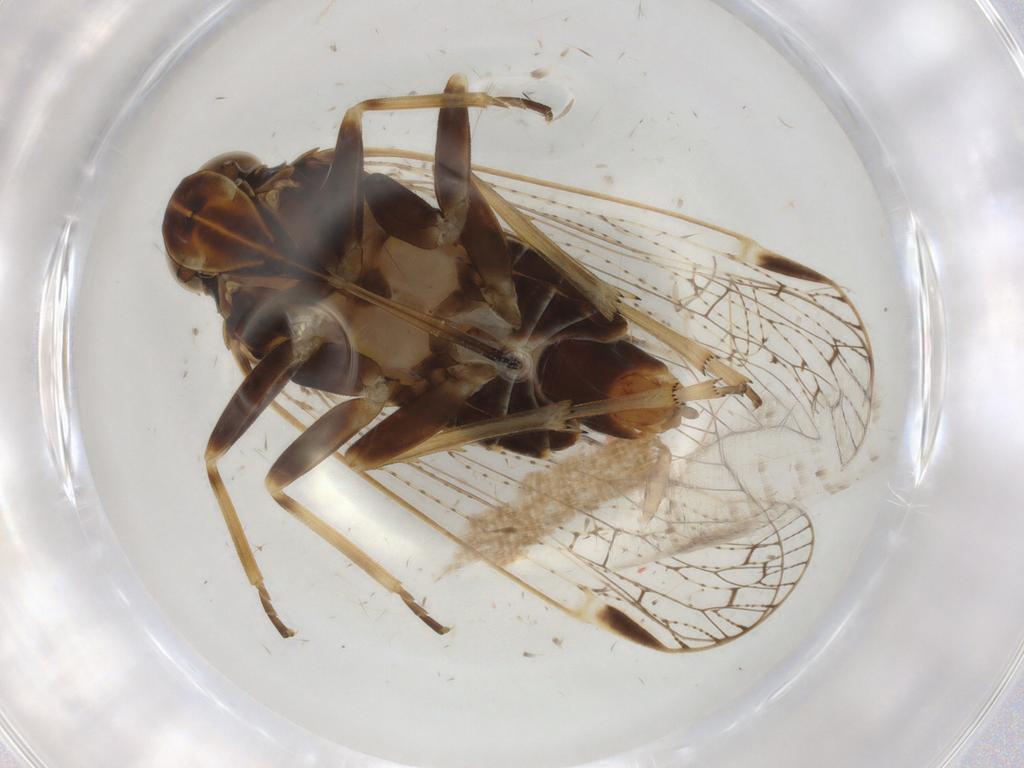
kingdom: Animalia
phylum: Arthropoda
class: Insecta
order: Hemiptera
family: Cixiidae
